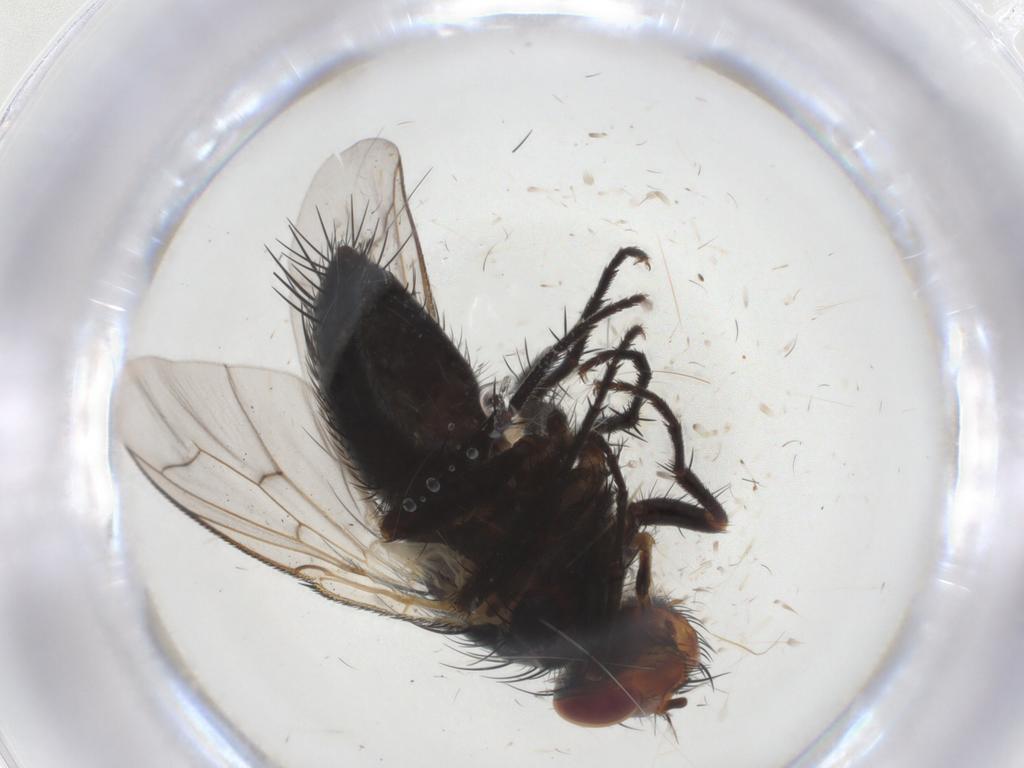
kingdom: Animalia
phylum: Arthropoda
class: Insecta
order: Diptera
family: Tachinidae
